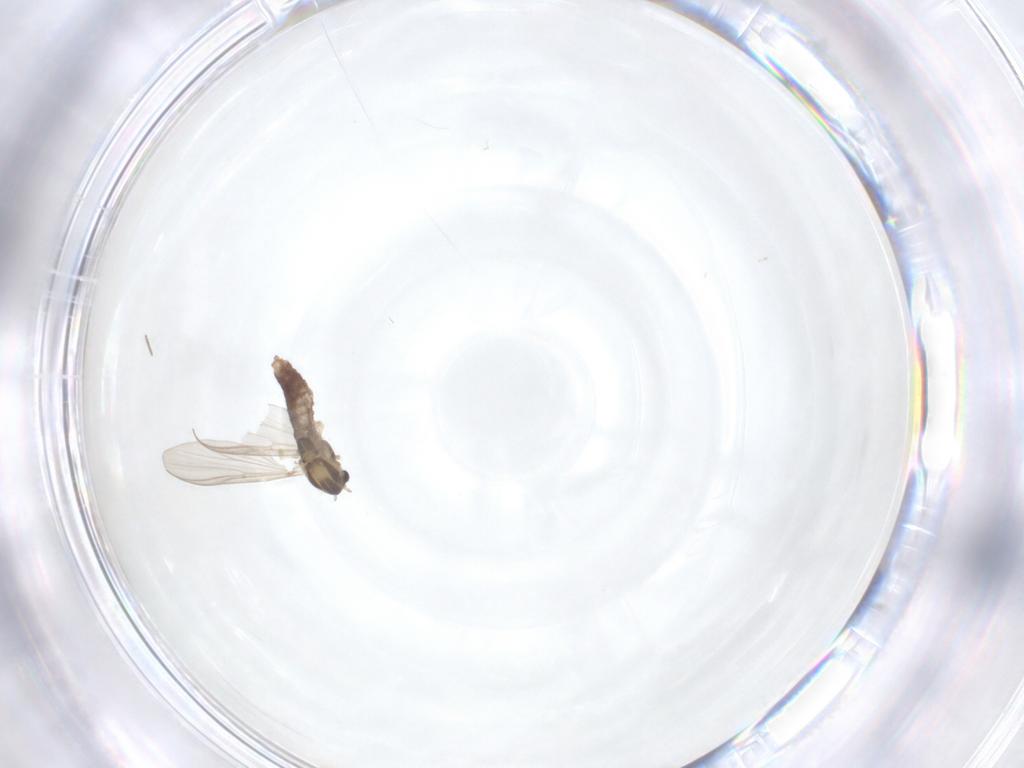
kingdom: Animalia
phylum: Arthropoda
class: Insecta
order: Diptera
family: Chironomidae
